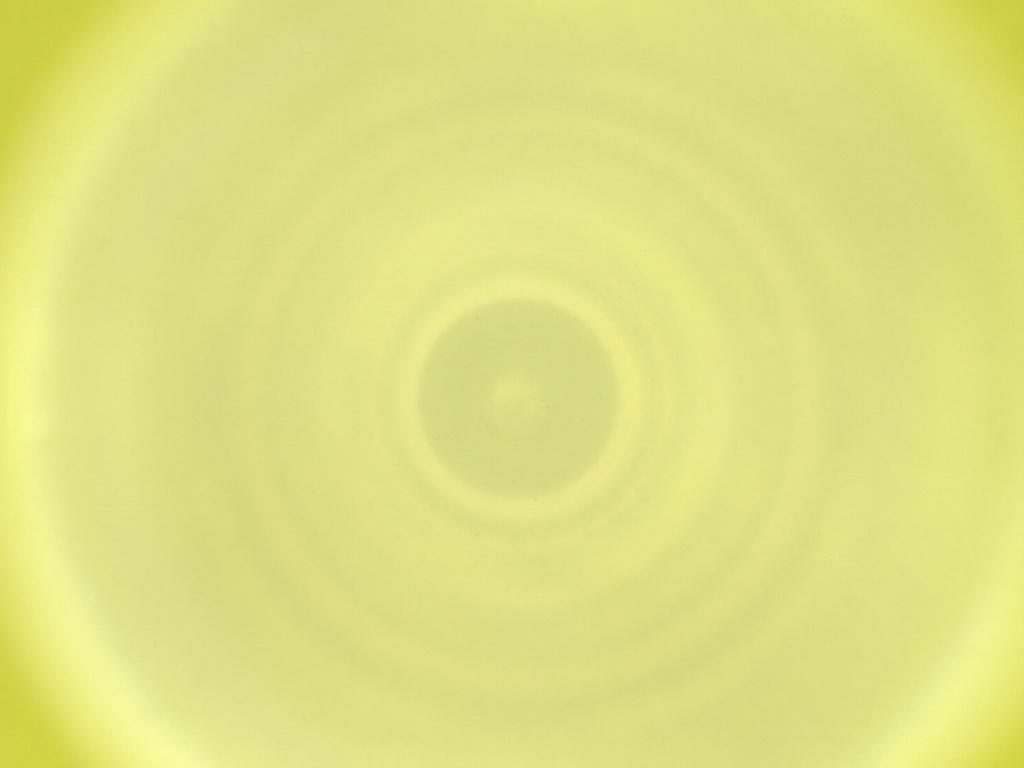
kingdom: Animalia
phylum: Arthropoda
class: Insecta
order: Diptera
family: Cecidomyiidae
